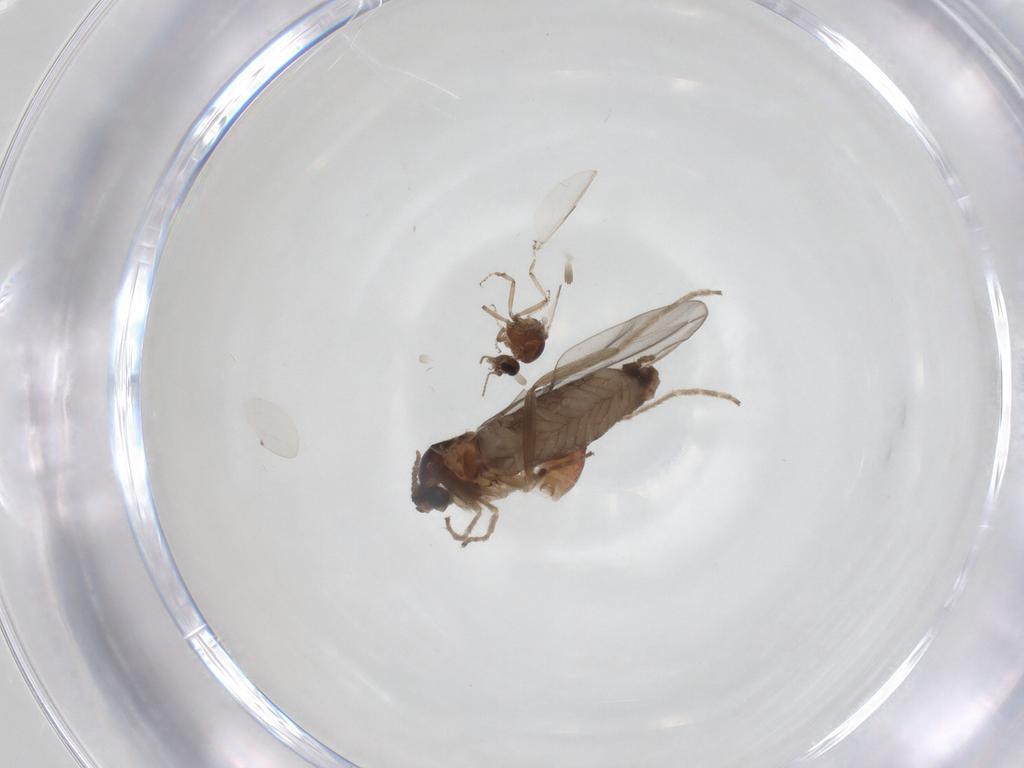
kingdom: Animalia
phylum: Arthropoda
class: Insecta
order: Diptera
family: Cecidomyiidae
